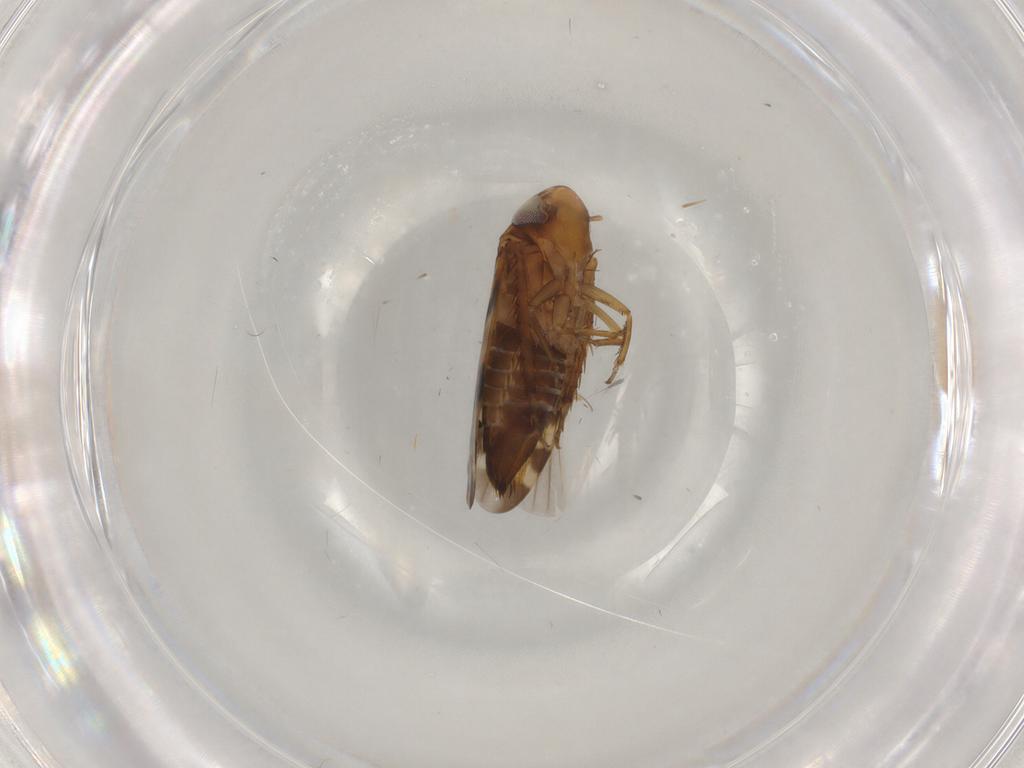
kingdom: Animalia
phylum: Arthropoda
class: Insecta
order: Hemiptera
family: Cicadellidae
